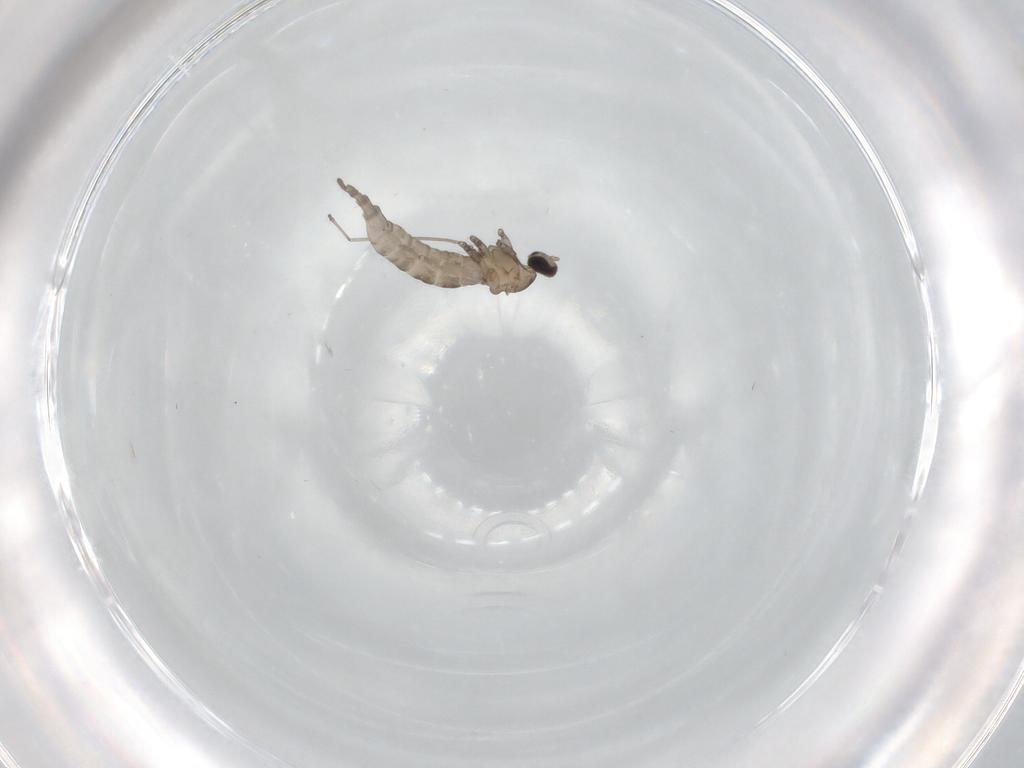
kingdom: Animalia
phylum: Arthropoda
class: Insecta
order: Diptera
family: Cecidomyiidae
